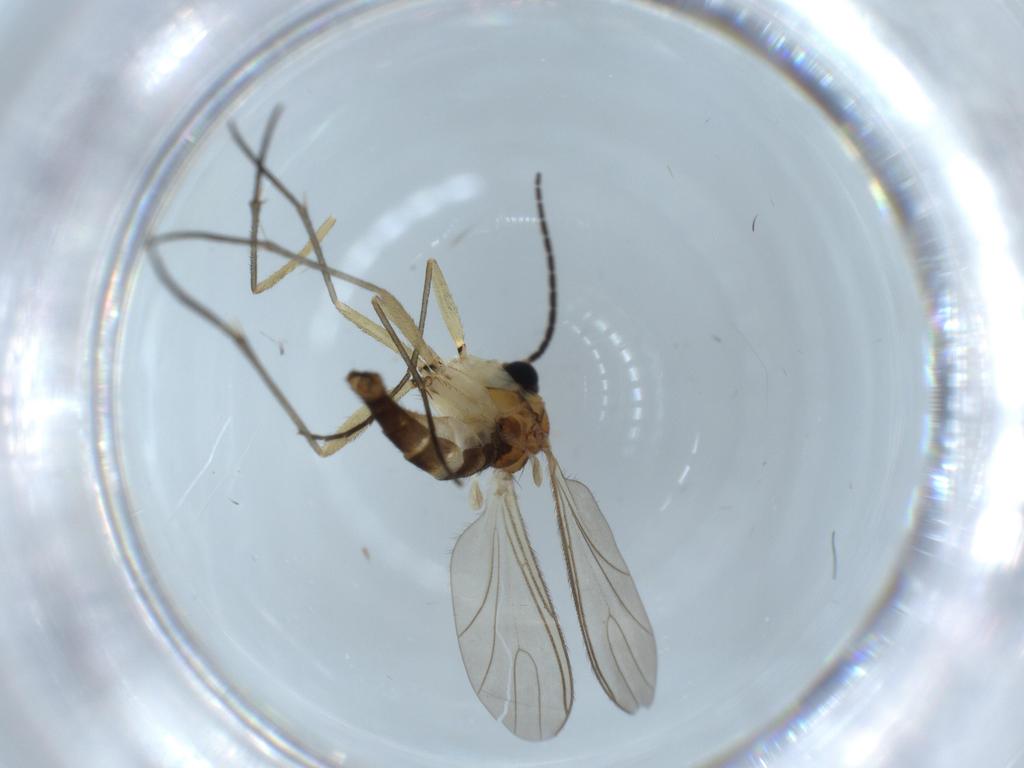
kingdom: Animalia
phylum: Arthropoda
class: Insecta
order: Diptera
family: Sciaridae
